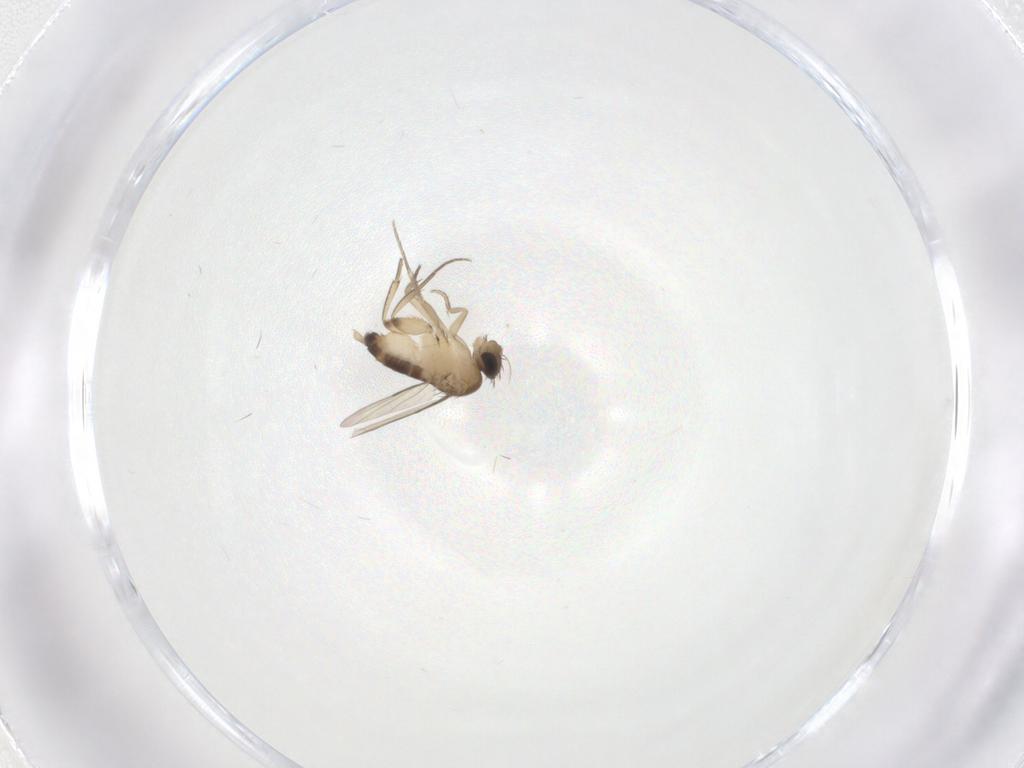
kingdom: Animalia
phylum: Arthropoda
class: Insecta
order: Diptera
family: Phoridae
